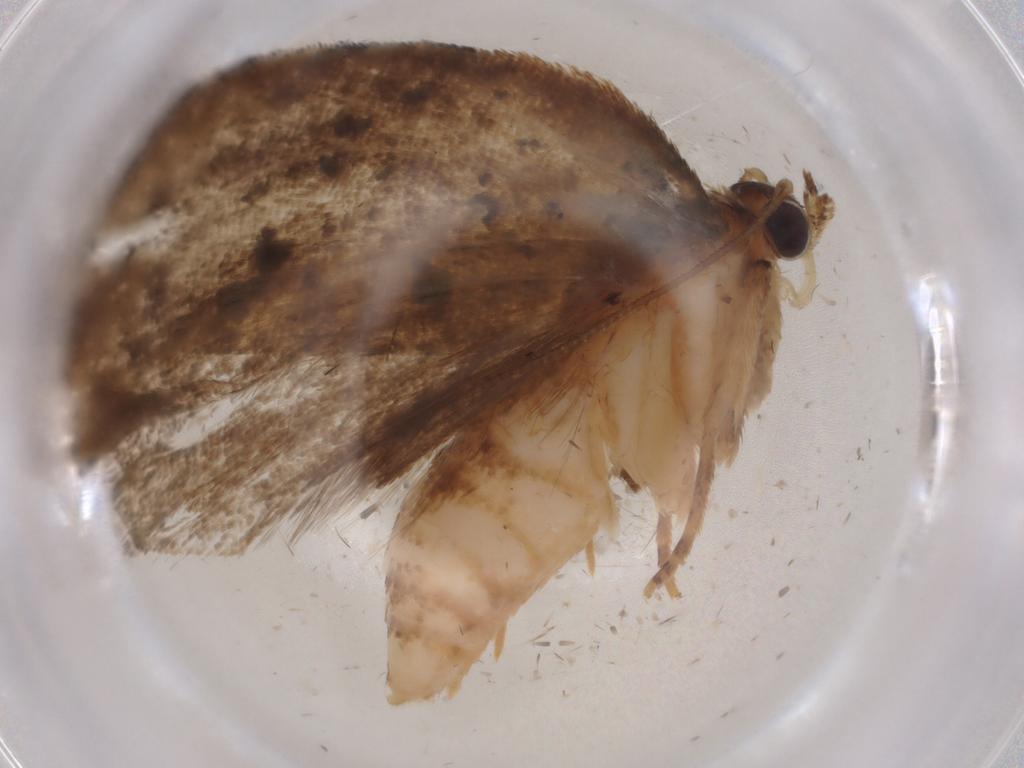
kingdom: Animalia
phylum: Arthropoda
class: Insecta
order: Lepidoptera
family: Tortricidae
